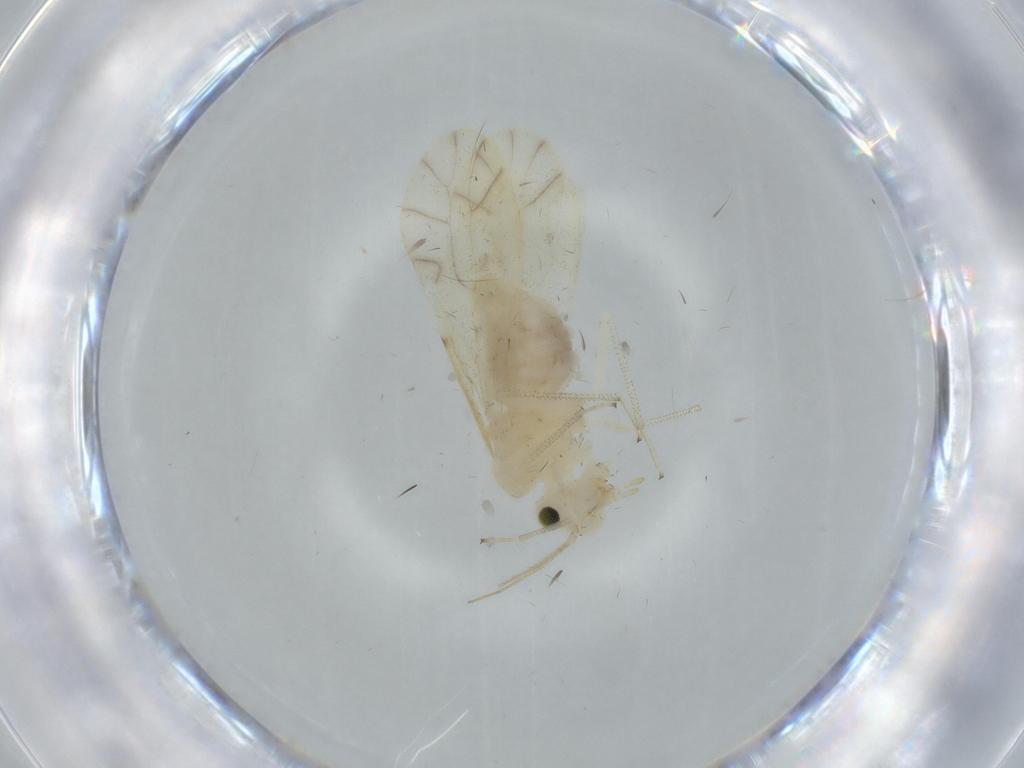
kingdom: Animalia
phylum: Arthropoda
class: Insecta
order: Psocodea
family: Caeciliusidae
